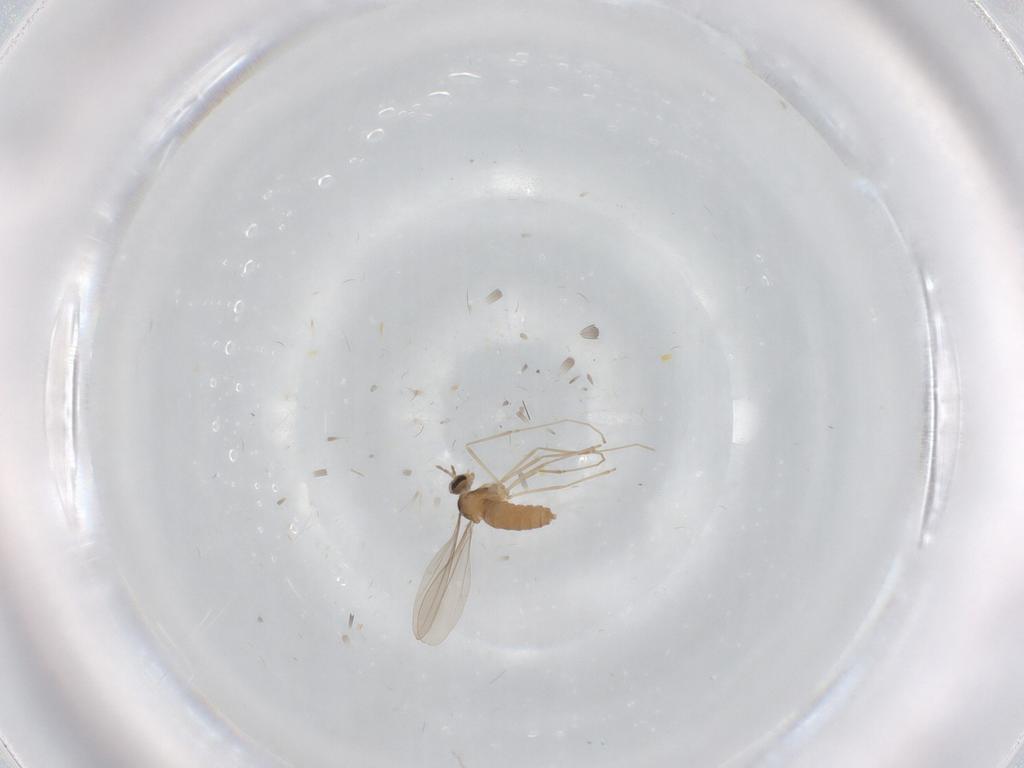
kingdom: Animalia
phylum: Arthropoda
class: Insecta
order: Diptera
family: Cecidomyiidae
